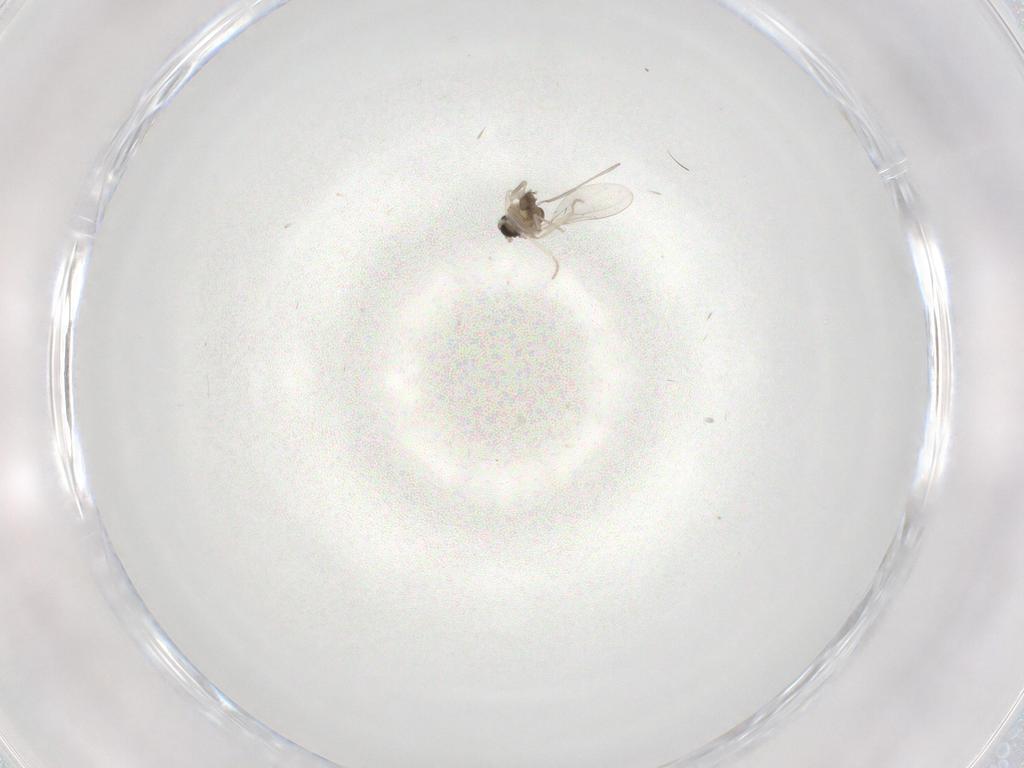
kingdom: Animalia
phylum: Arthropoda
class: Insecta
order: Diptera
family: Cecidomyiidae
